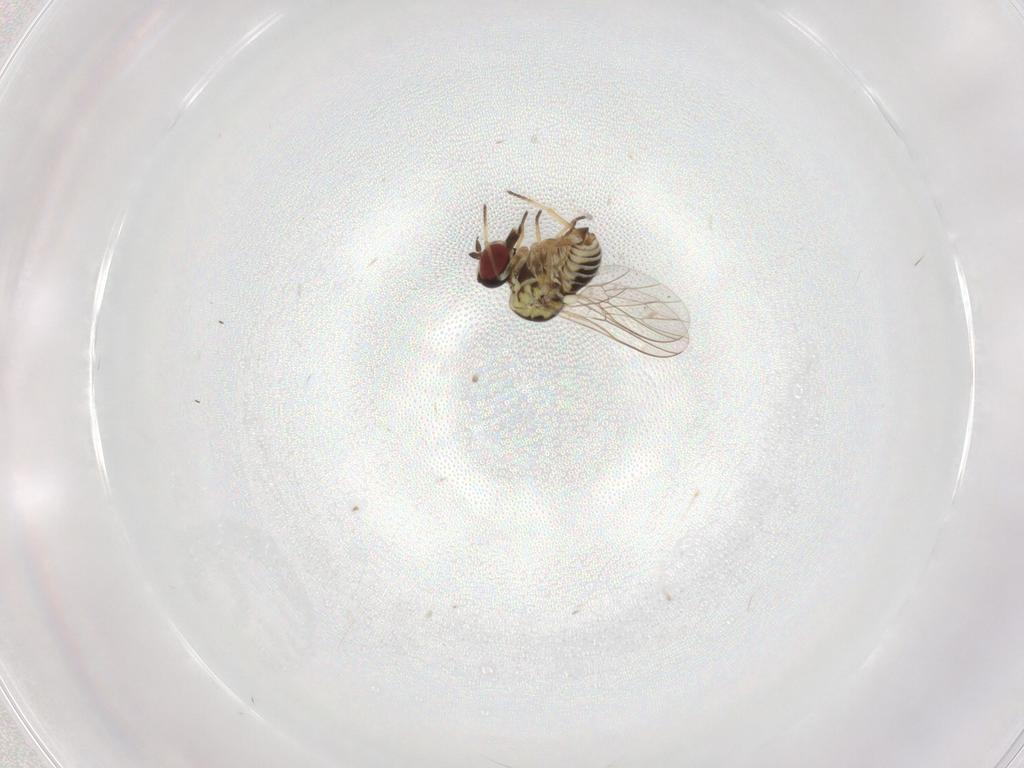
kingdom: Animalia
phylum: Arthropoda
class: Insecta
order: Diptera
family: Bombyliidae
